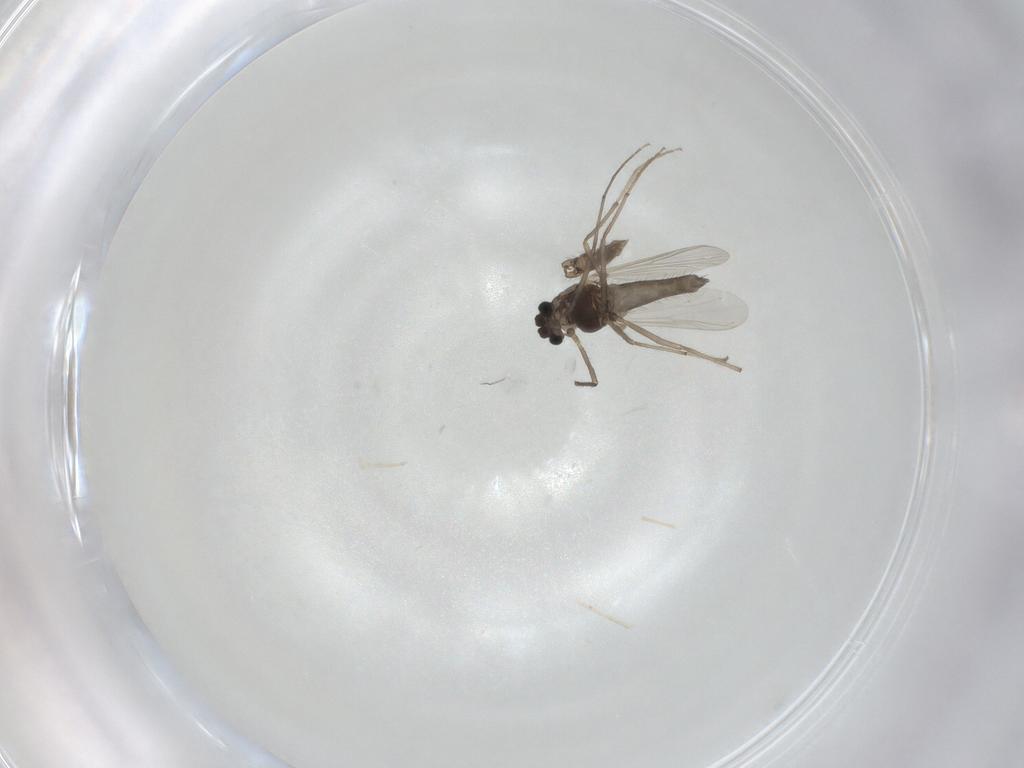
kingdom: Animalia
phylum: Arthropoda
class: Insecta
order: Diptera
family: Chironomidae
